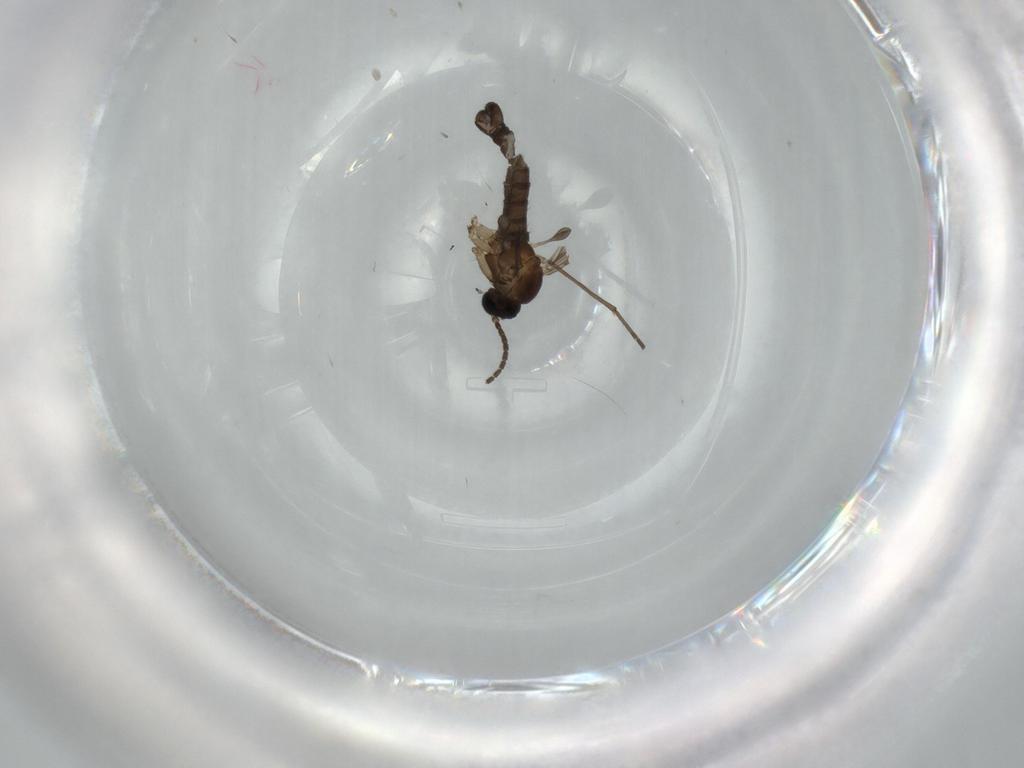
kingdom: Animalia
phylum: Arthropoda
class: Insecta
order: Diptera
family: Sciaridae
